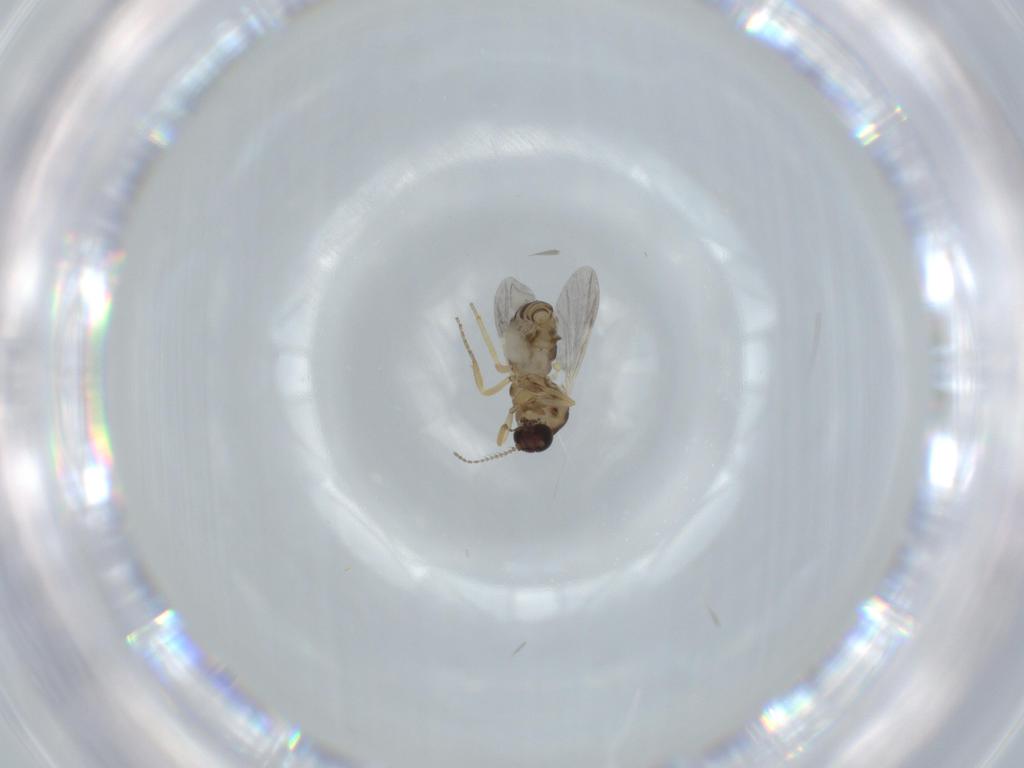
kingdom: Animalia
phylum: Arthropoda
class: Insecta
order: Diptera
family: Ceratopogonidae
